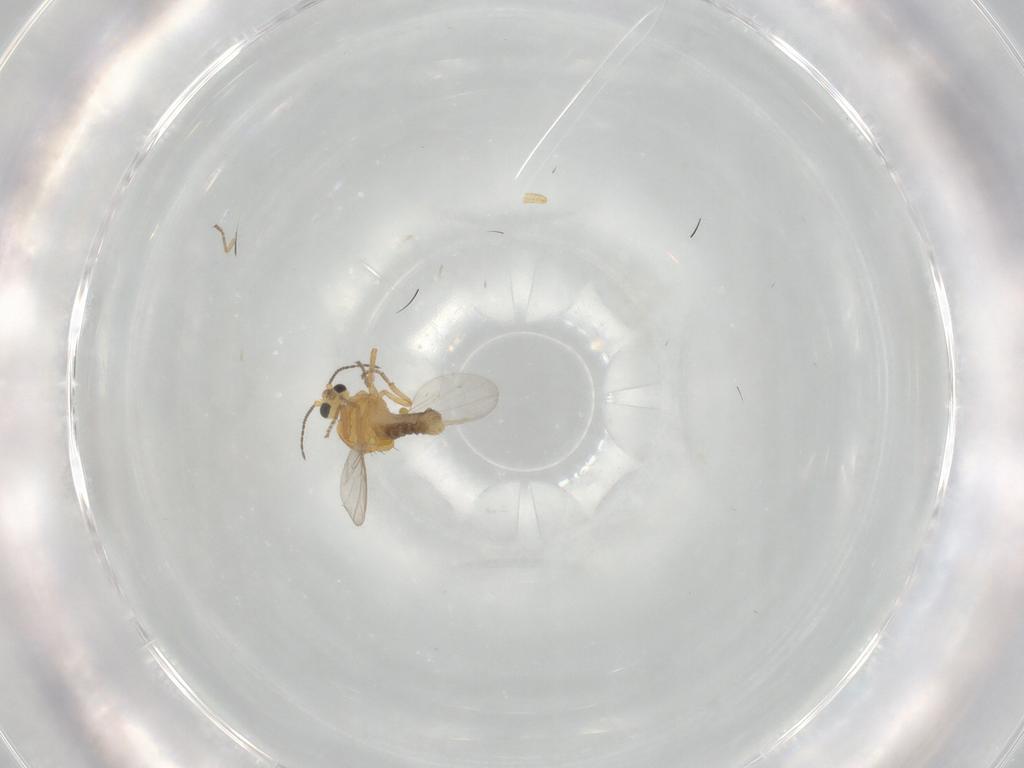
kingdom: Animalia
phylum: Arthropoda
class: Insecta
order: Diptera
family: Ceratopogonidae
